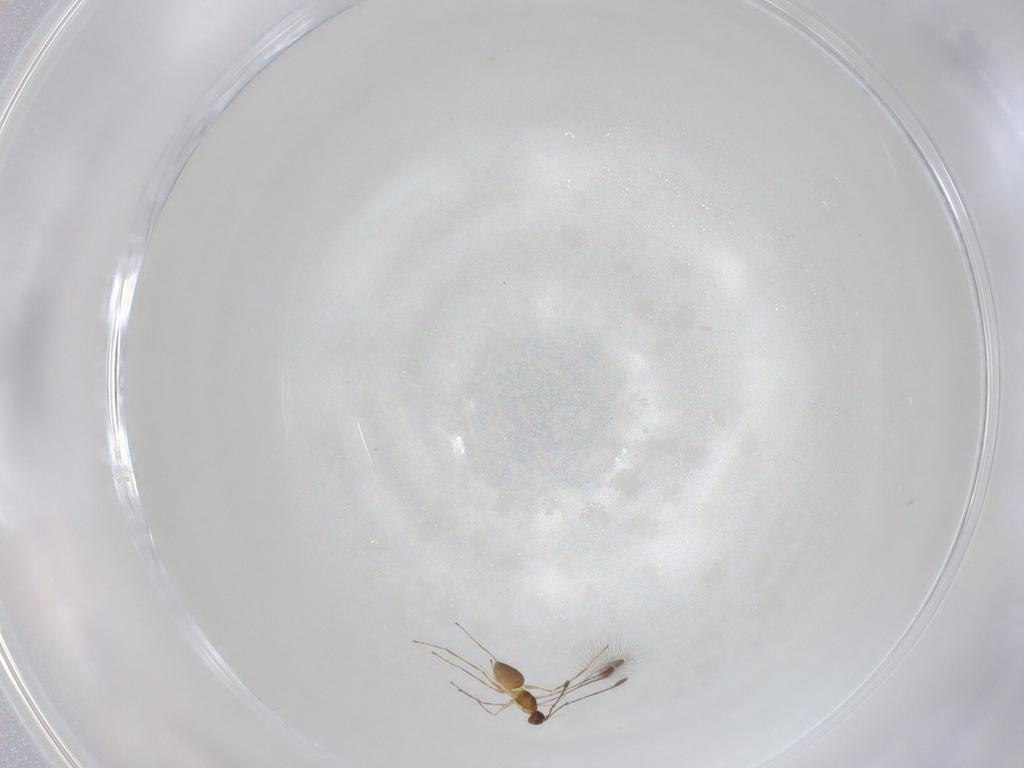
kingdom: Animalia
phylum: Arthropoda
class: Insecta
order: Hymenoptera
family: Mymaridae
